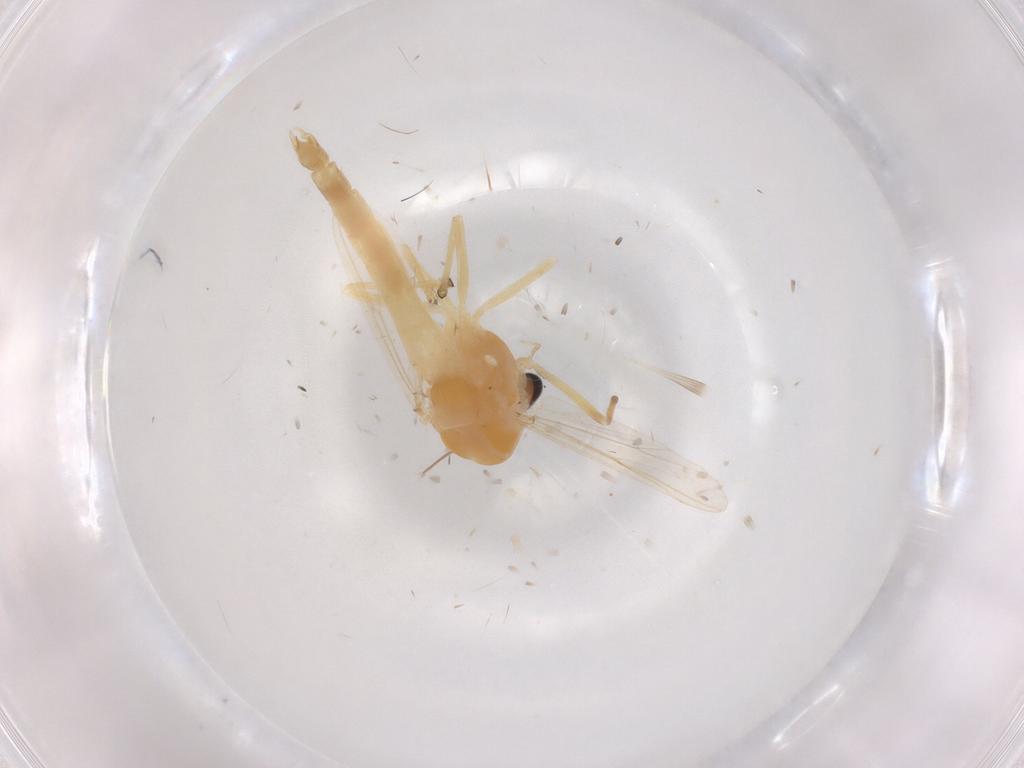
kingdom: Animalia
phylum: Arthropoda
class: Insecta
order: Diptera
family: Chironomidae
